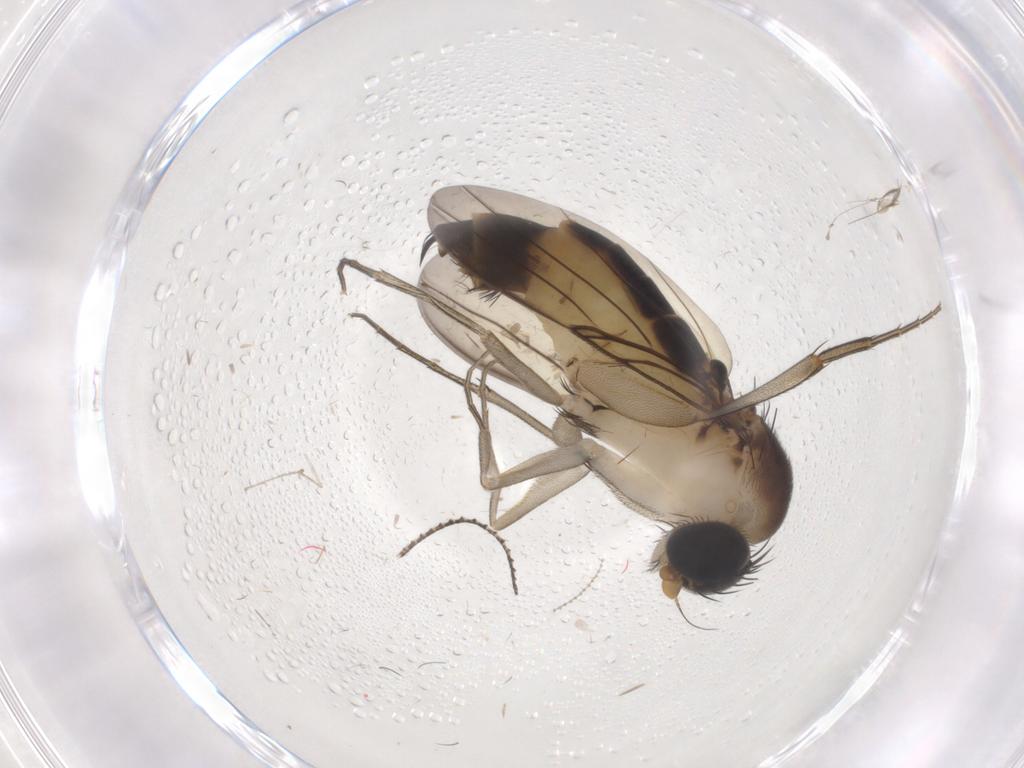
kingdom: Animalia
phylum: Arthropoda
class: Insecta
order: Diptera
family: Phoridae
